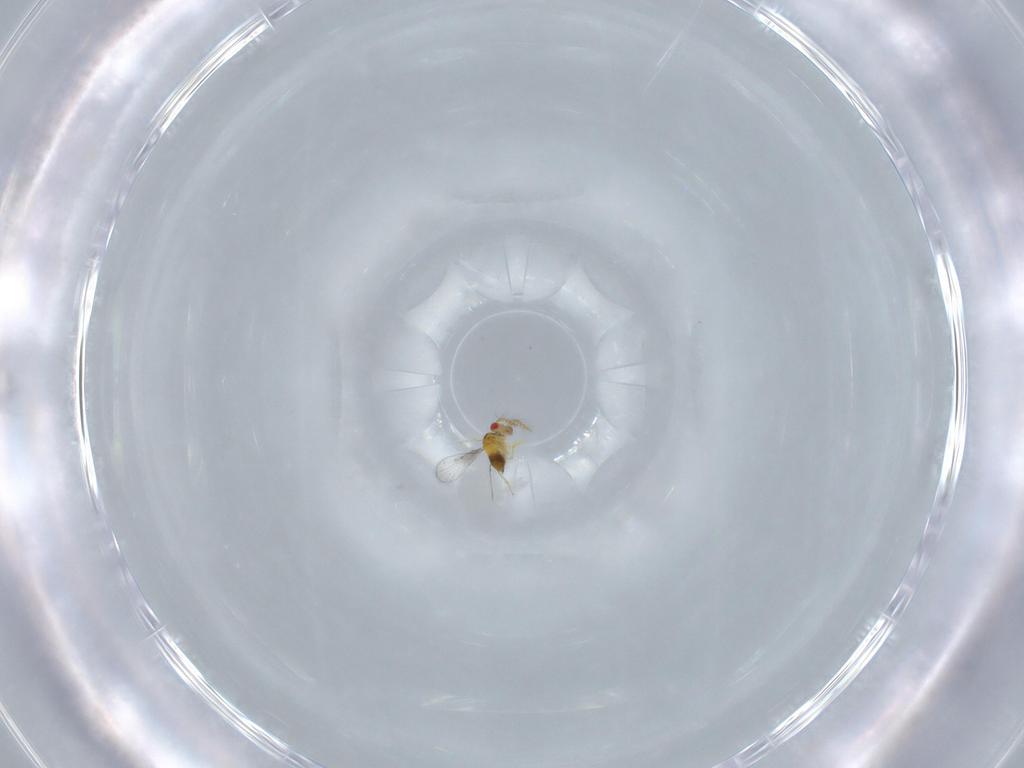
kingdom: Animalia
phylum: Arthropoda
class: Insecta
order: Hymenoptera
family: Trichogrammatidae
